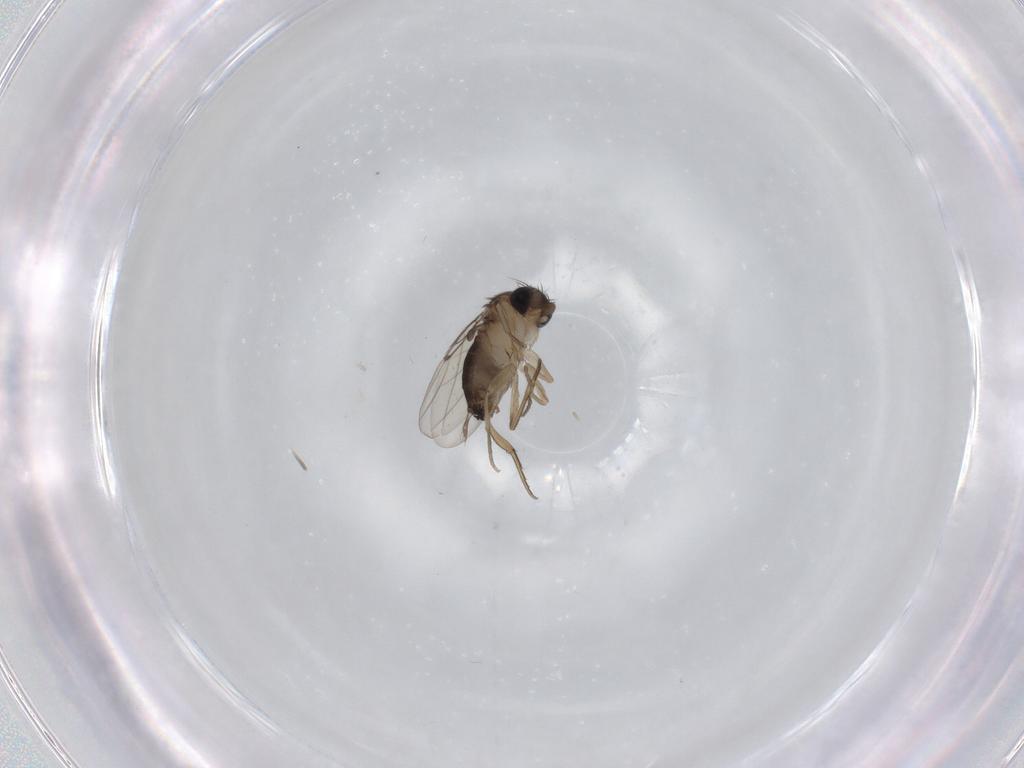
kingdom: Animalia
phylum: Arthropoda
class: Insecta
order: Diptera
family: Phoridae
